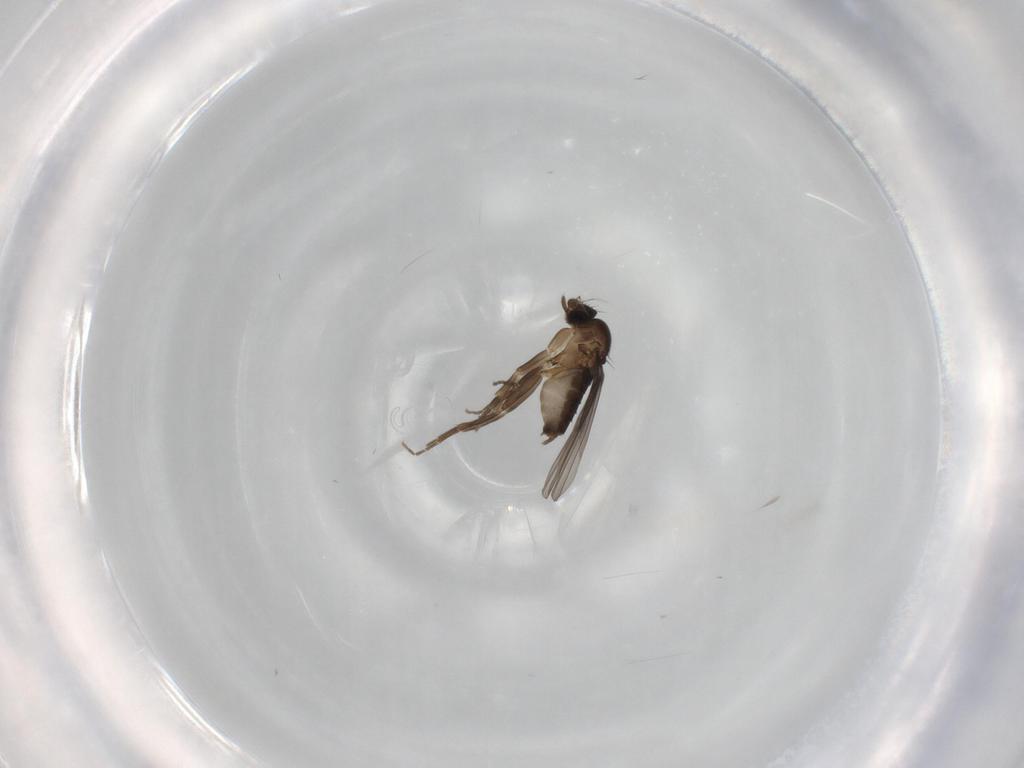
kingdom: Animalia
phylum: Arthropoda
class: Insecta
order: Diptera
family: Phoridae
